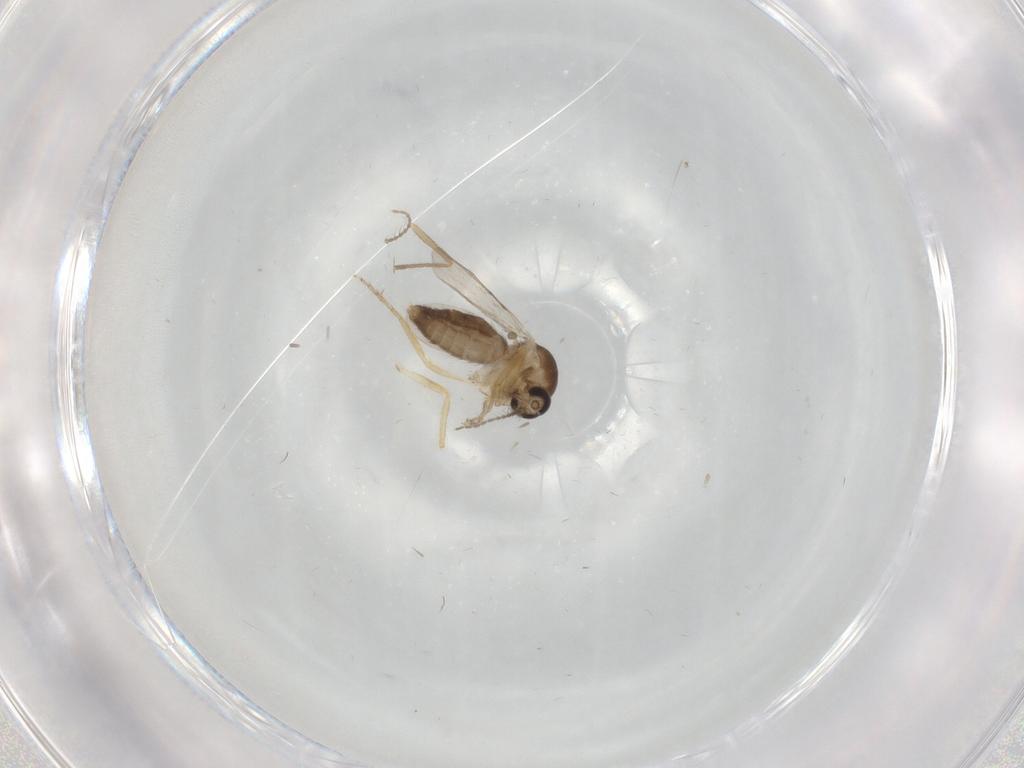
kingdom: Animalia
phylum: Arthropoda
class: Insecta
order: Diptera
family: Ceratopogonidae
